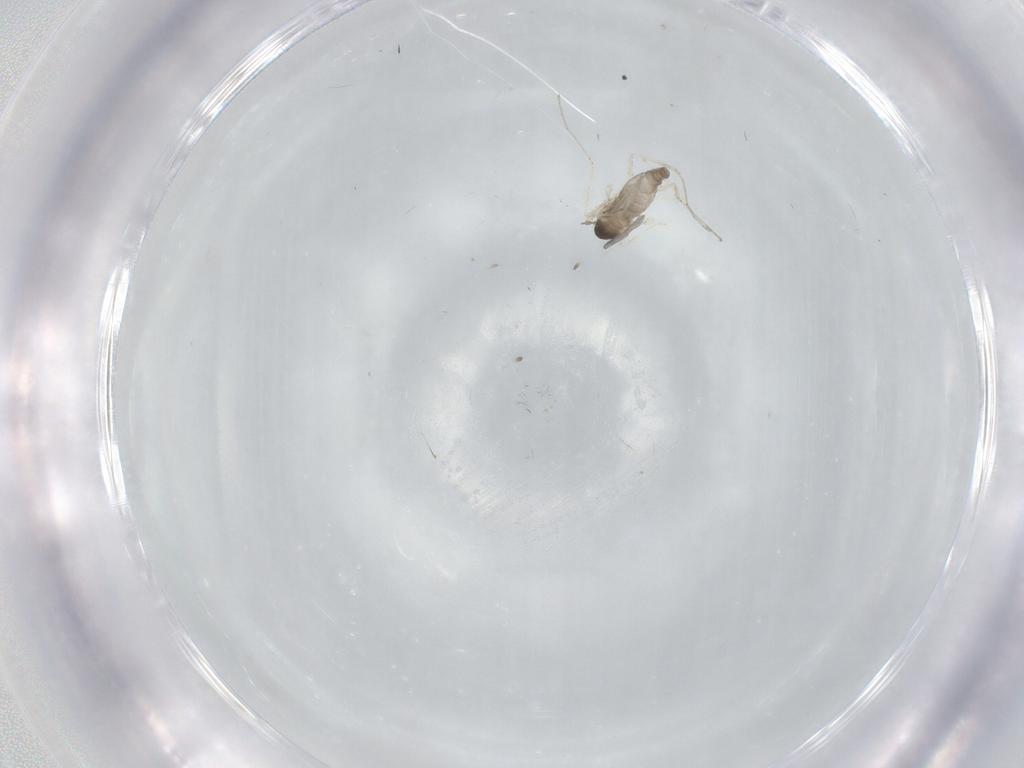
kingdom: Animalia
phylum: Arthropoda
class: Insecta
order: Diptera
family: Cecidomyiidae
